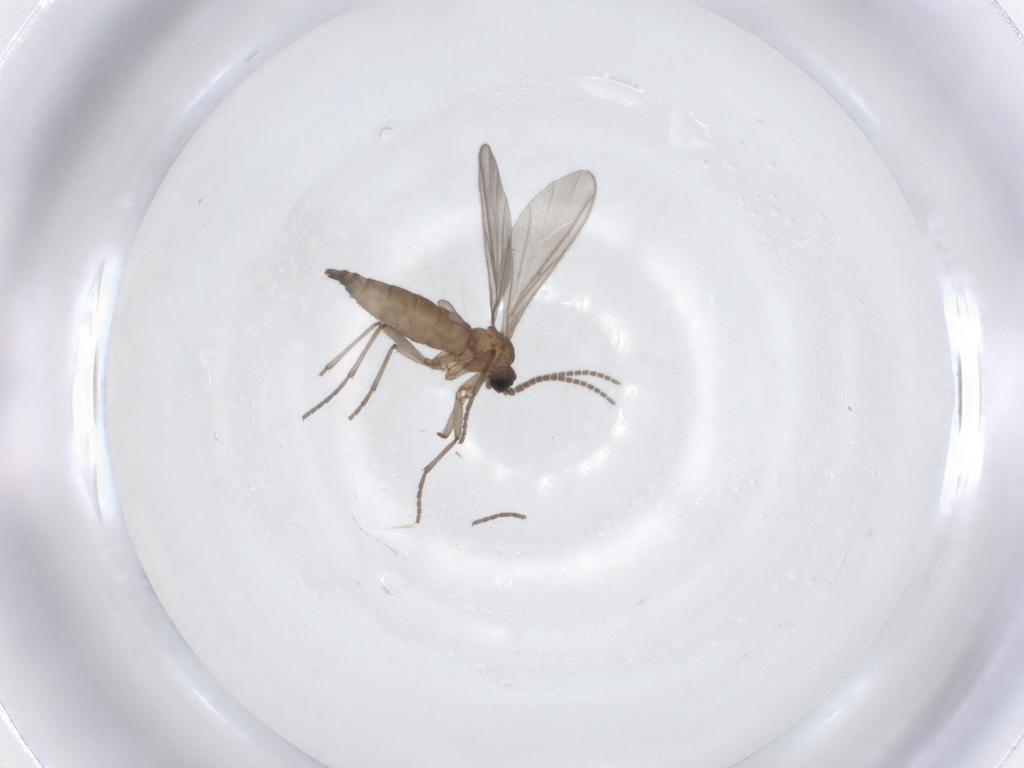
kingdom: Animalia
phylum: Arthropoda
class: Insecta
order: Diptera
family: Sciaridae
